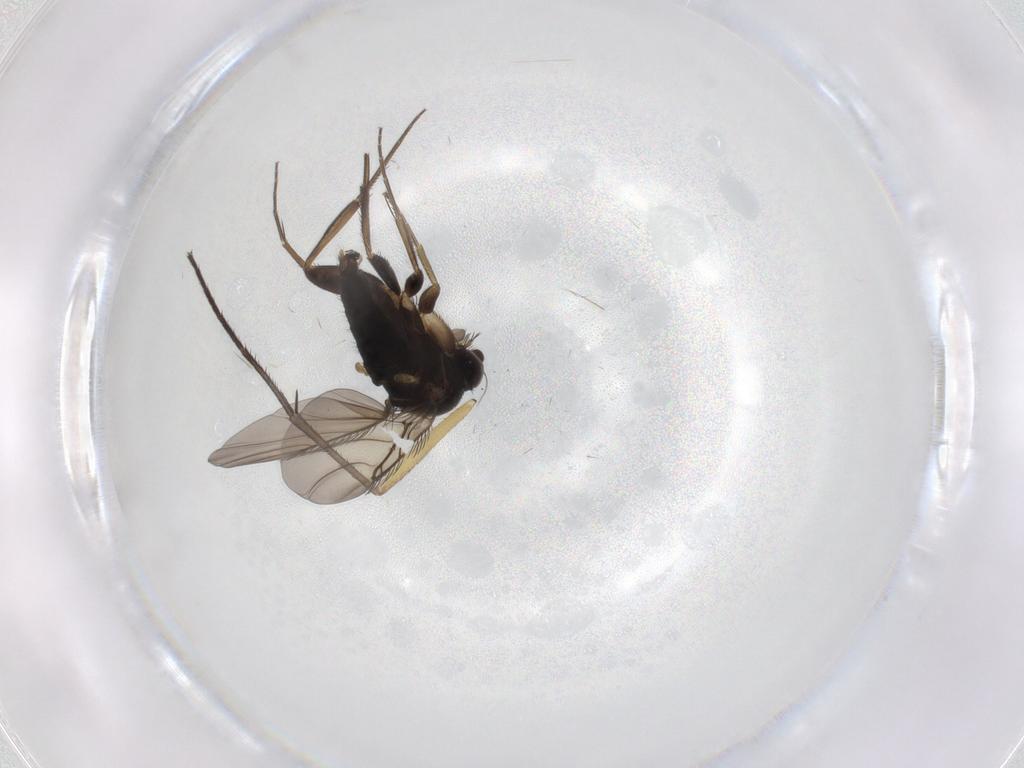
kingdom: Animalia
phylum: Arthropoda
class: Insecta
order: Diptera
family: Phoridae
